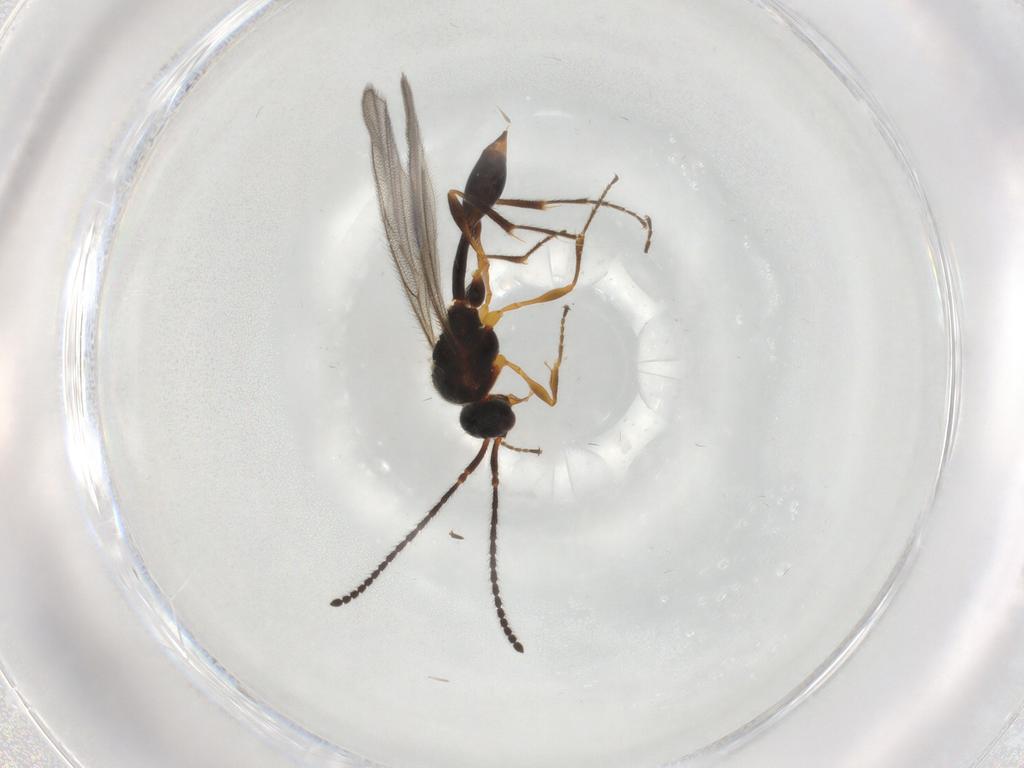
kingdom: Animalia
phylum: Arthropoda
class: Insecta
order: Hymenoptera
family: Diapriidae
